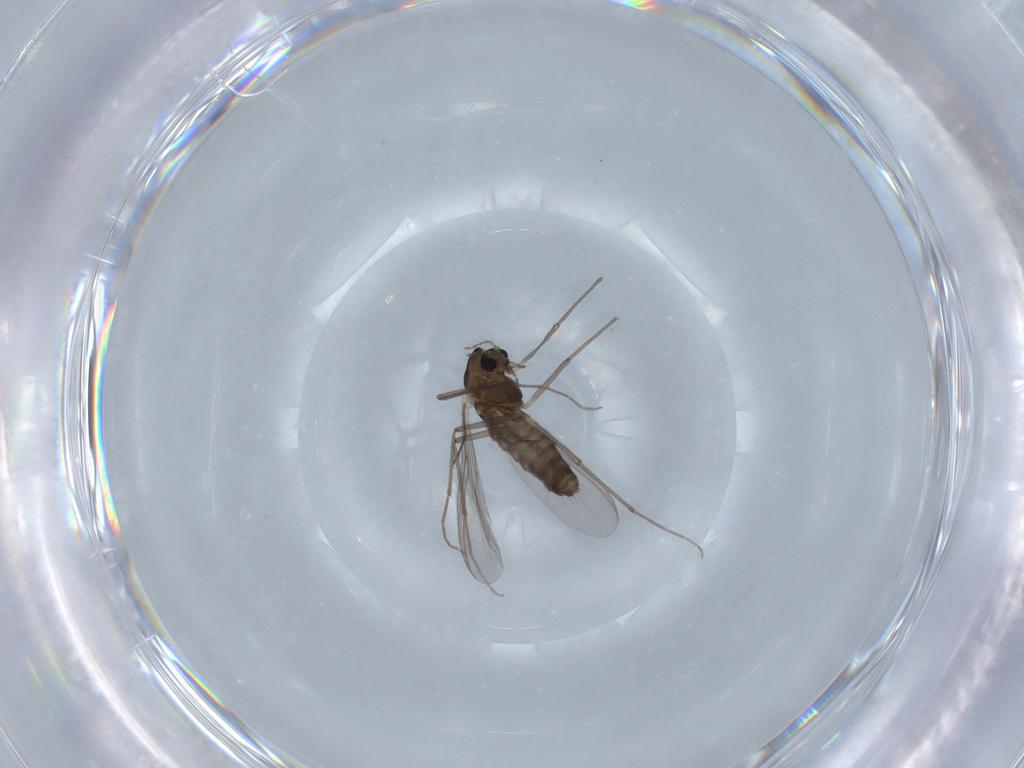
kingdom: Animalia
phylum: Arthropoda
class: Insecta
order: Diptera
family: Chironomidae
